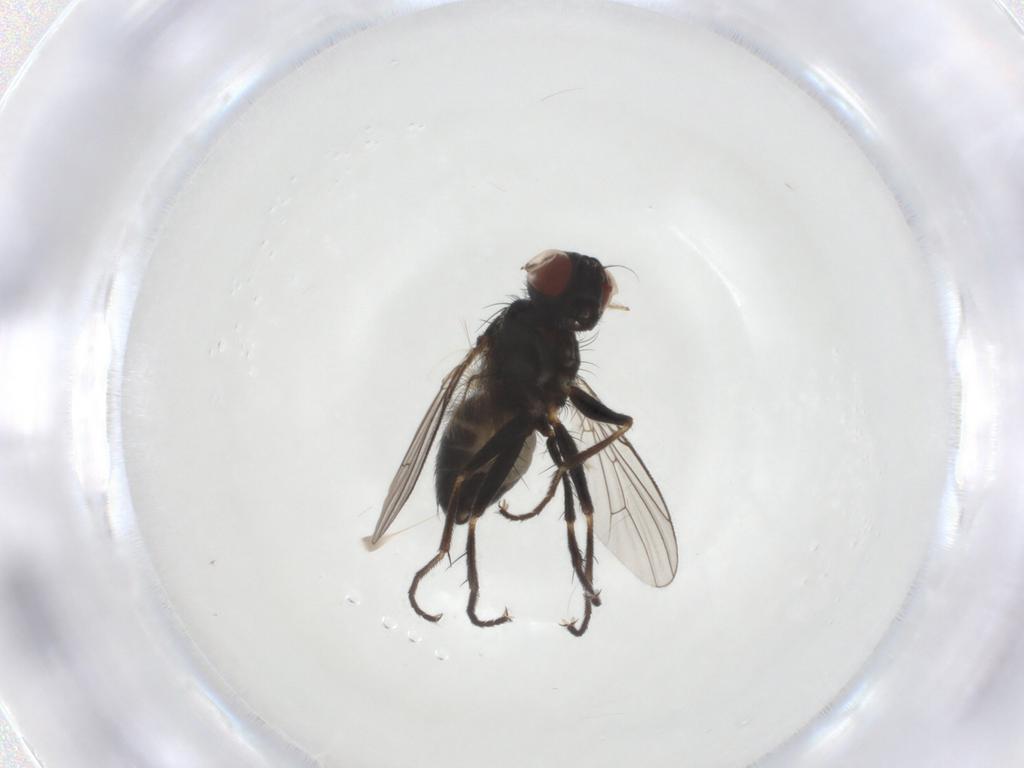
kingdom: Animalia
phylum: Arthropoda
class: Insecta
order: Diptera
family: Muscidae
